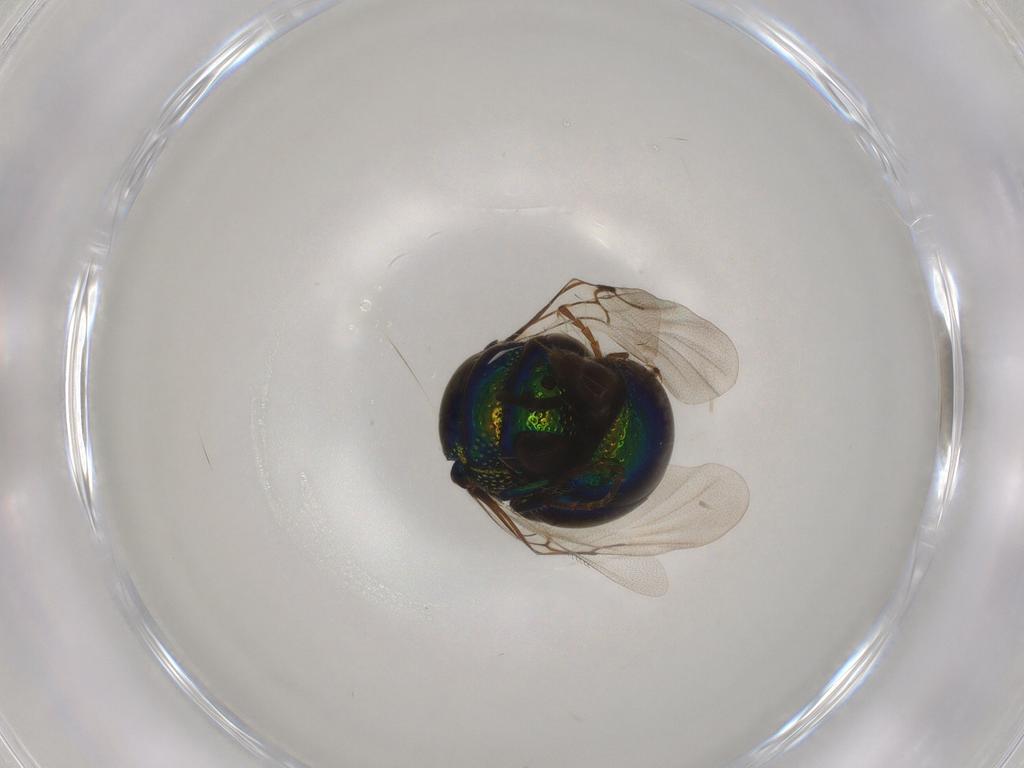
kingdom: Animalia
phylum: Arthropoda
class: Insecta
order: Hymenoptera
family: Chrysididae
